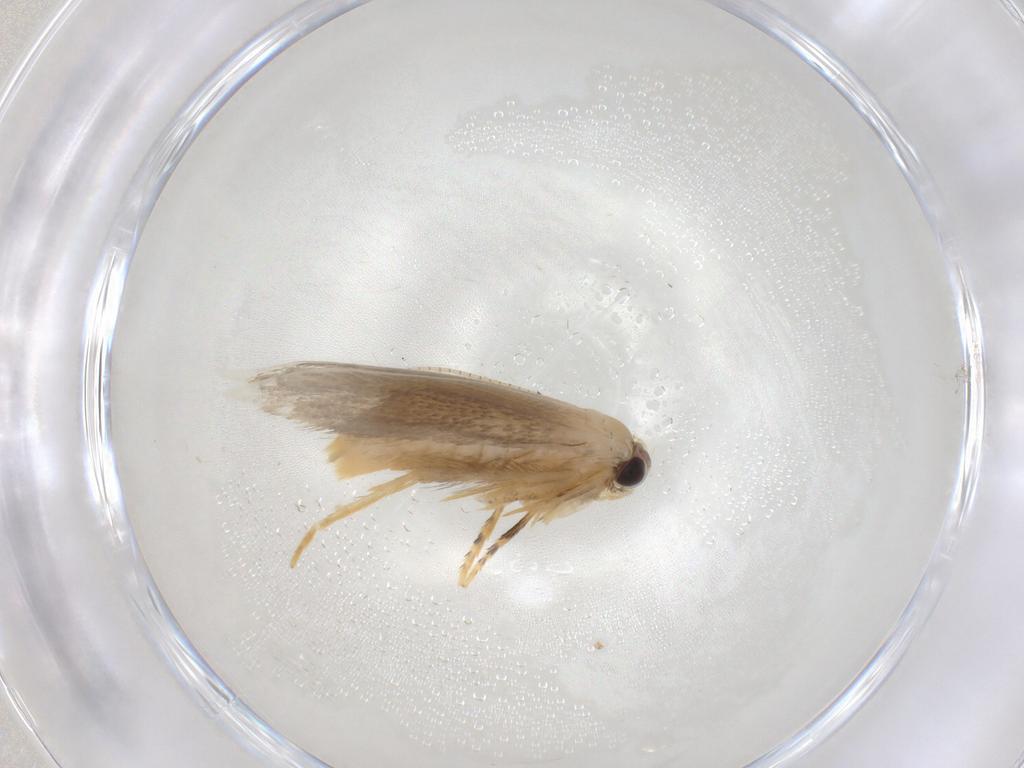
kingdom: Animalia
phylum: Arthropoda
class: Insecta
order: Lepidoptera
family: Tineidae
